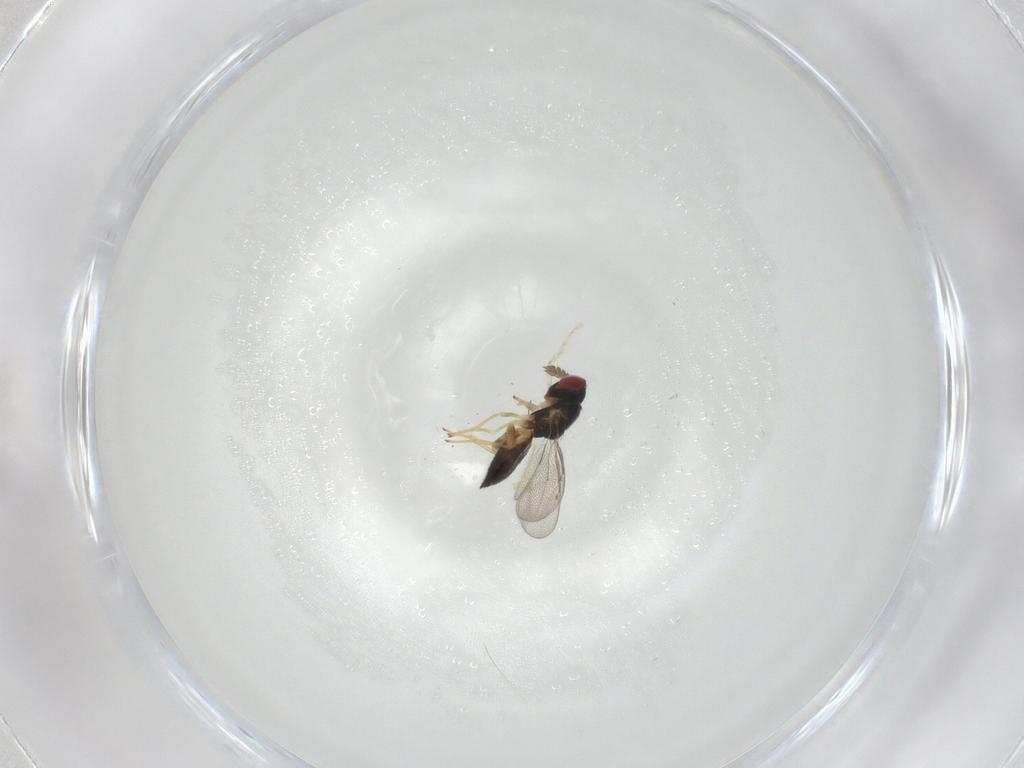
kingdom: Animalia
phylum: Arthropoda
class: Insecta
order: Hymenoptera
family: Eulophidae
